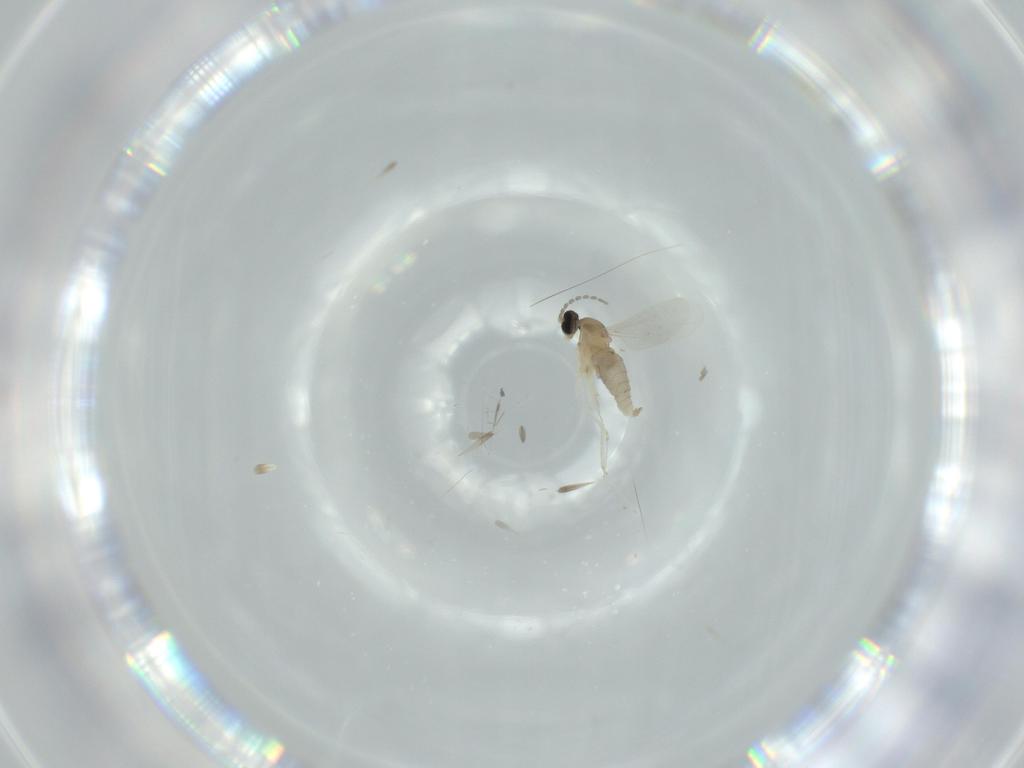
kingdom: Animalia
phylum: Arthropoda
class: Insecta
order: Diptera
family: Cecidomyiidae
